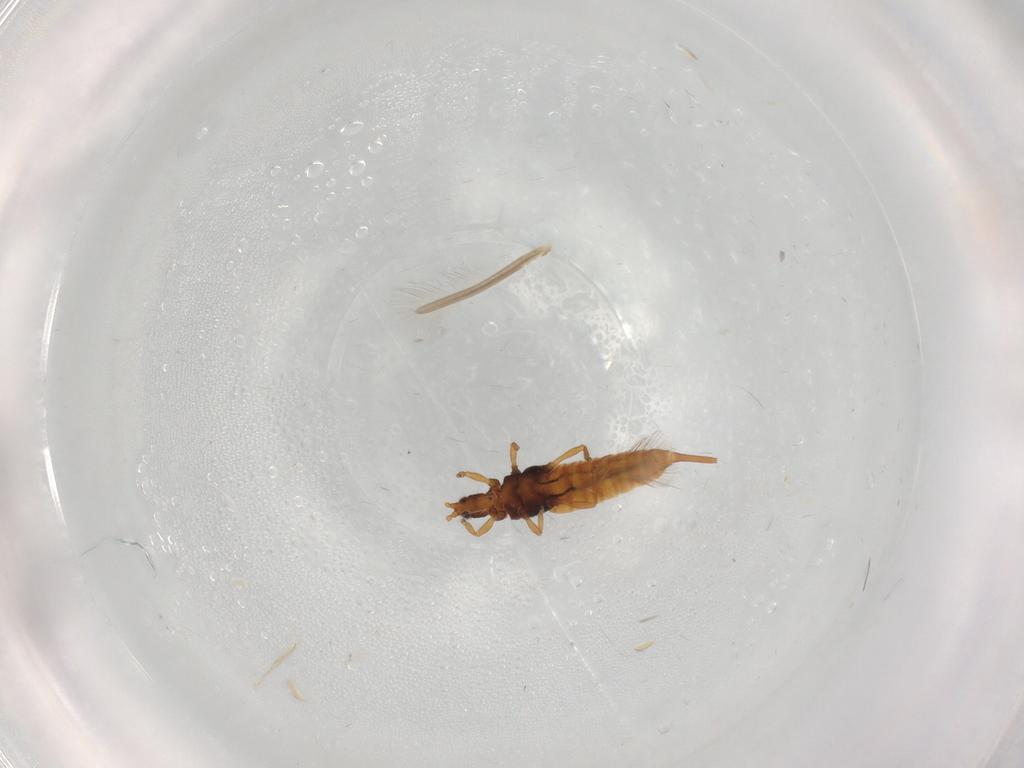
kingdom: Animalia
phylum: Arthropoda
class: Insecta
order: Thysanoptera
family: Phlaeothripidae
